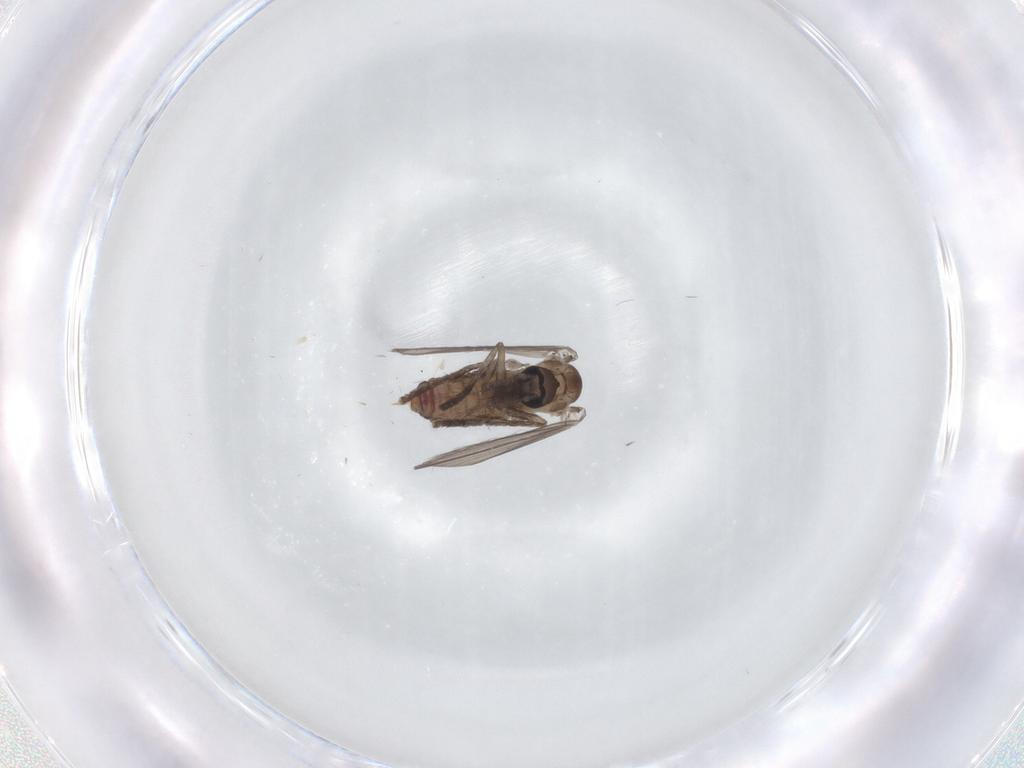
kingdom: Animalia
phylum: Arthropoda
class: Insecta
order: Diptera
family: Psychodidae
